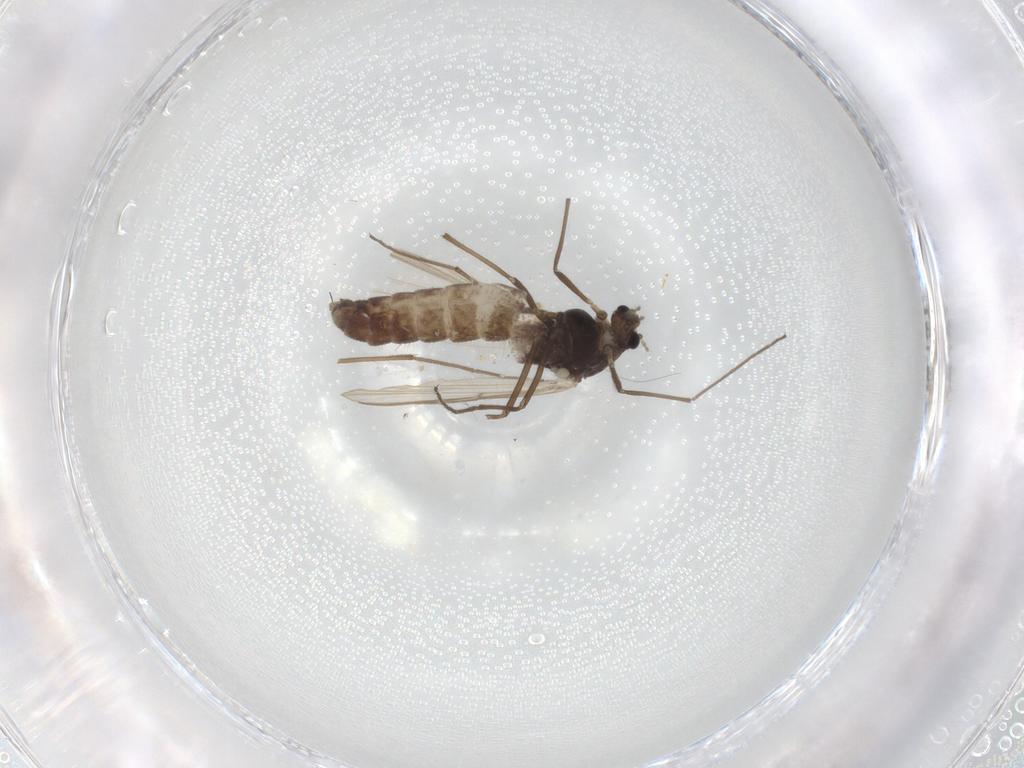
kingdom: Animalia
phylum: Arthropoda
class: Insecta
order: Diptera
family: Chironomidae
